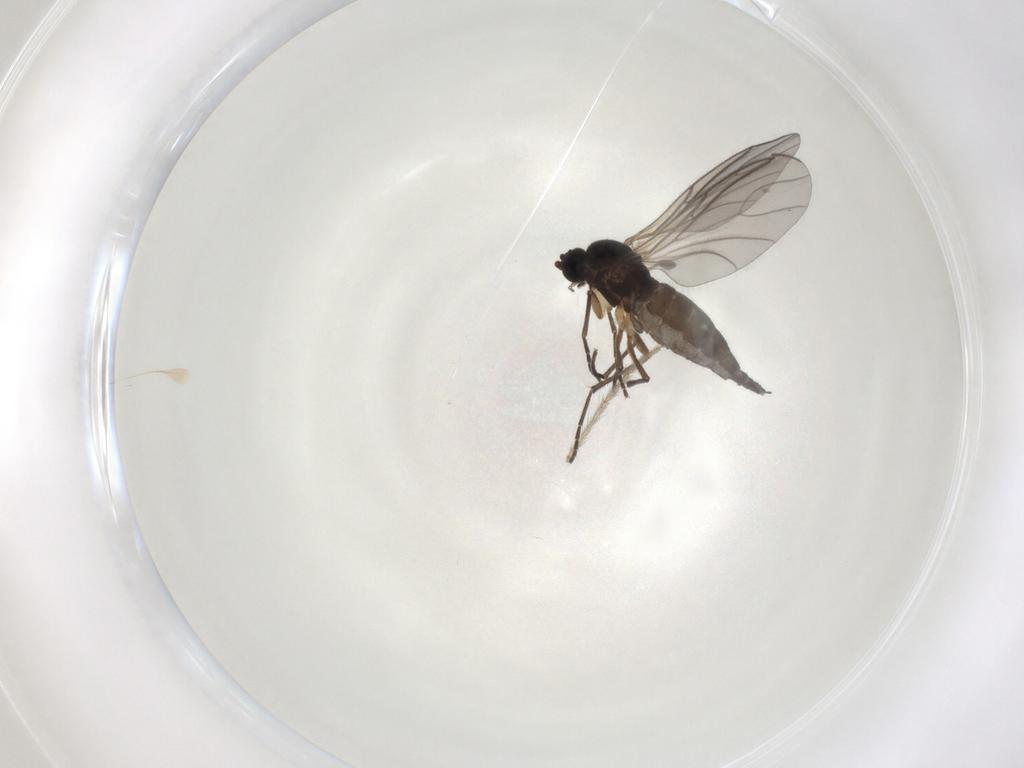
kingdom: Animalia
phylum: Arthropoda
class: Insecta
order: Diptera
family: Sciaridae
